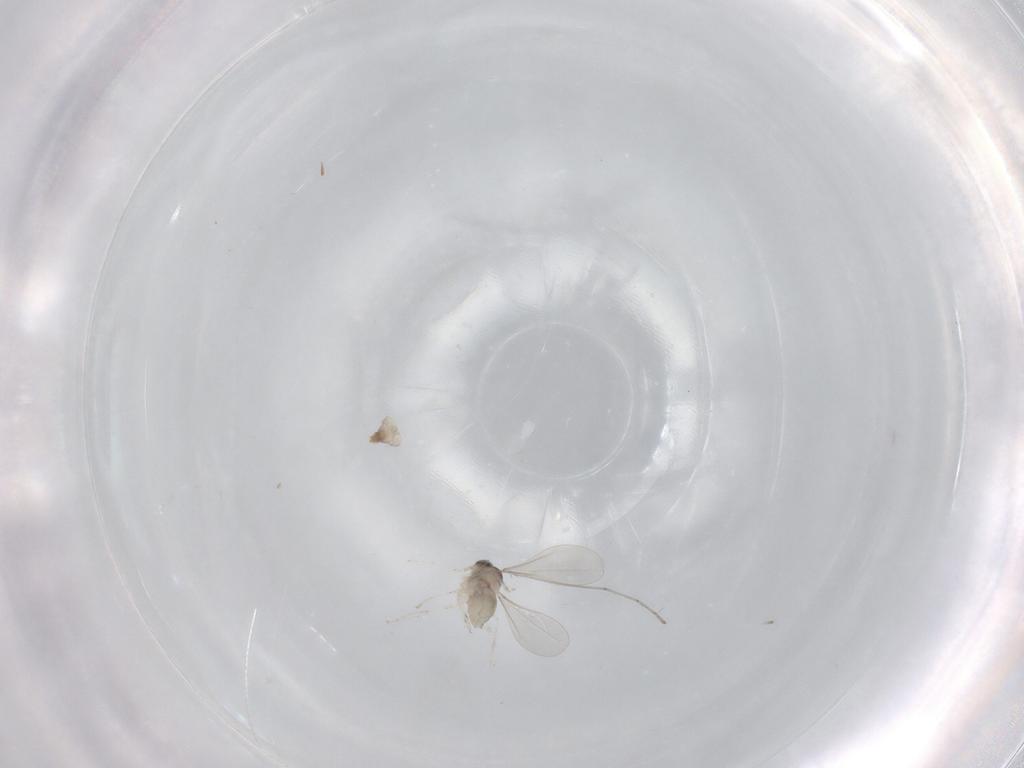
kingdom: Animalia
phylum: Arthropoda
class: Insecta
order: Diptera
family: Cecidomyiidae
